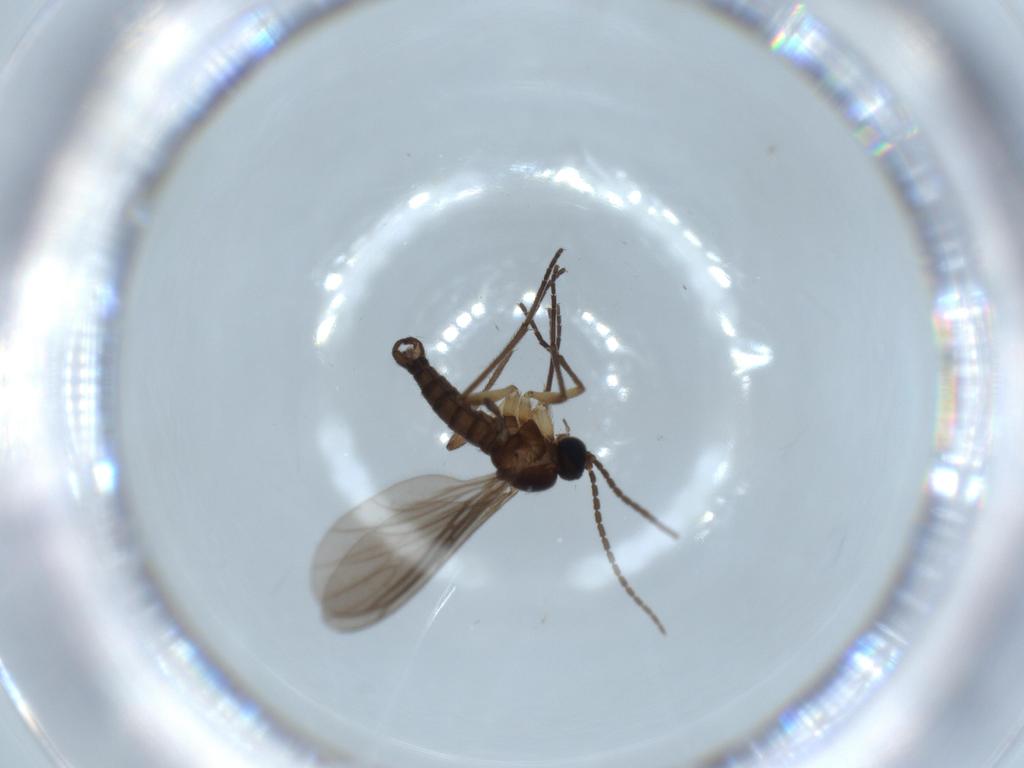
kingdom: Animalia
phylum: Arthropoda
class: Insecta
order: Diptera
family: Sciaridae
